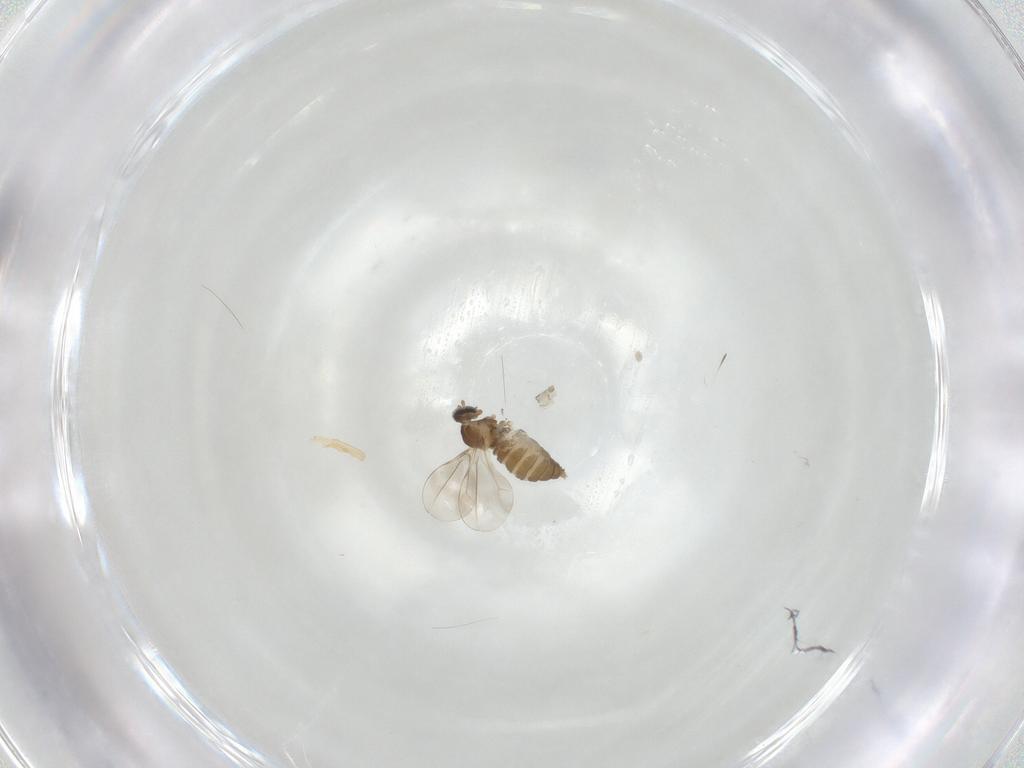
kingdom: Animalia
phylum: Arthropoda
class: Insecta
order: Diptera
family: Cecidomyiidae
